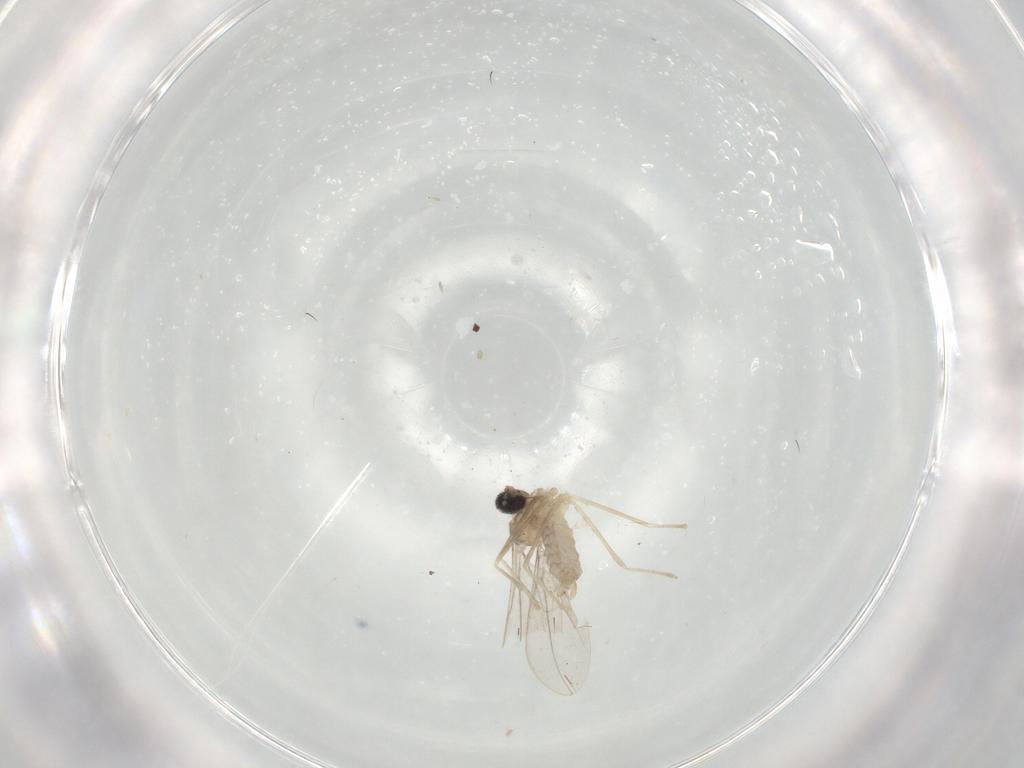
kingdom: Animalia
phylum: Arthropoda
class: Insecta
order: Diptera
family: Cecidomyiidae
